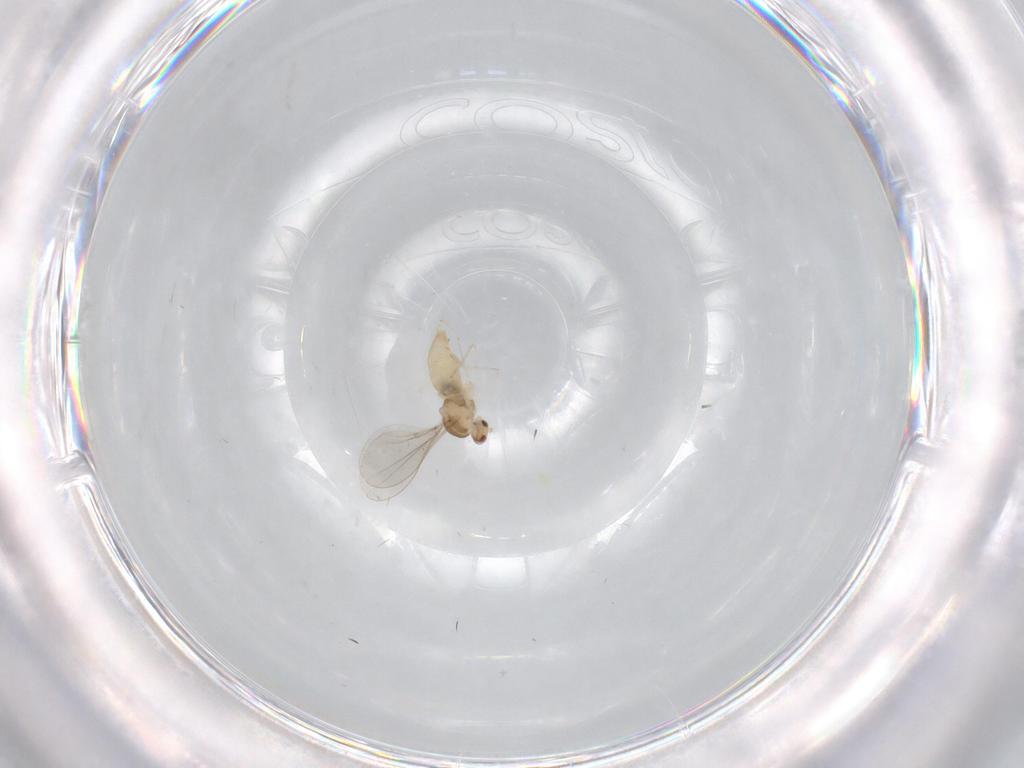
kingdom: Animalia
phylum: Arthropoda
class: Insecta
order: Diptera
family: Cecidomyiidae
